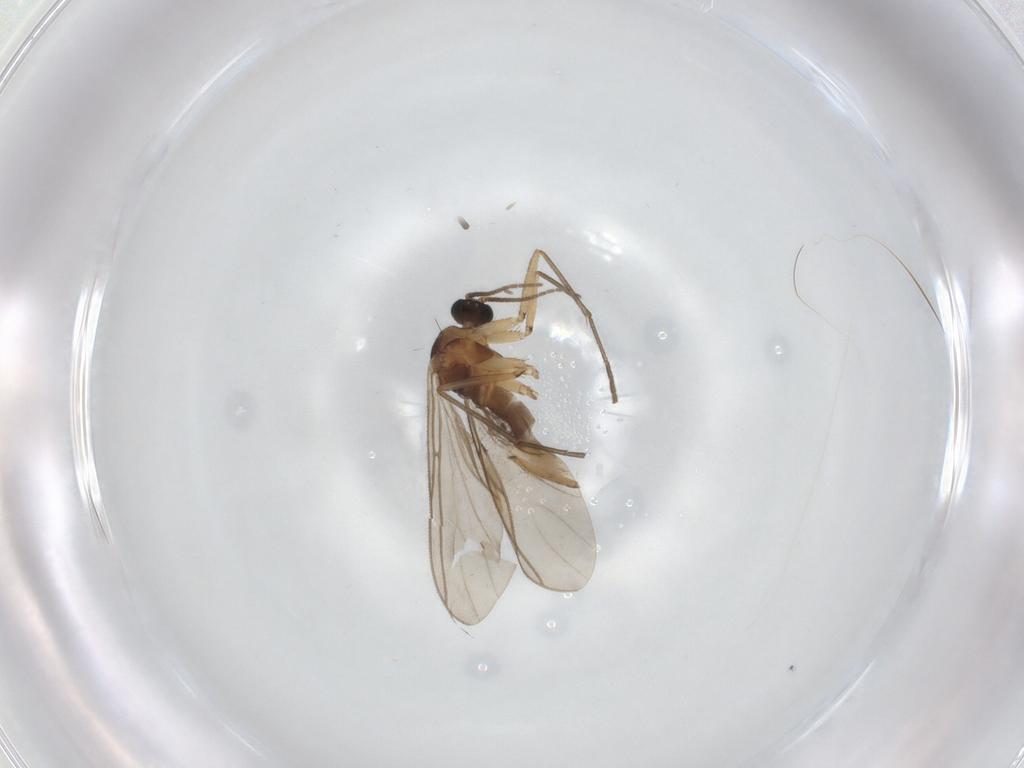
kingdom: Animalia
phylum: Arthropoda
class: Insecta
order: Diptera
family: Sciaridae
